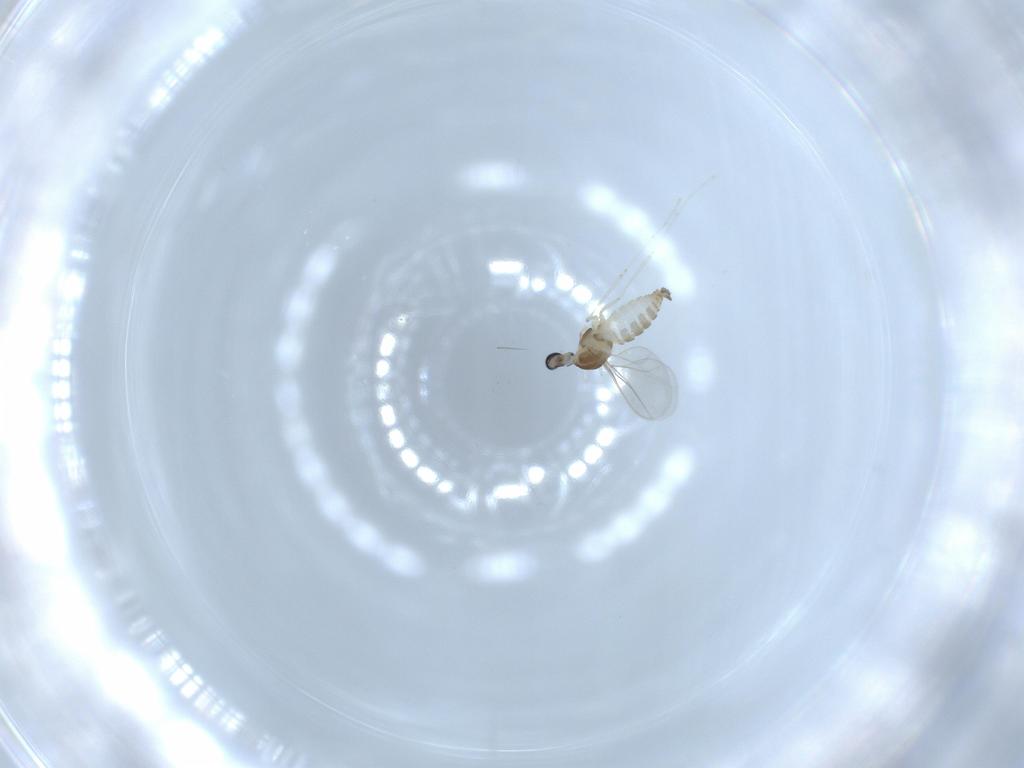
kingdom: Animalia
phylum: Arthropoda
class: Insecta
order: Diptera
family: Cecidomyiidae
